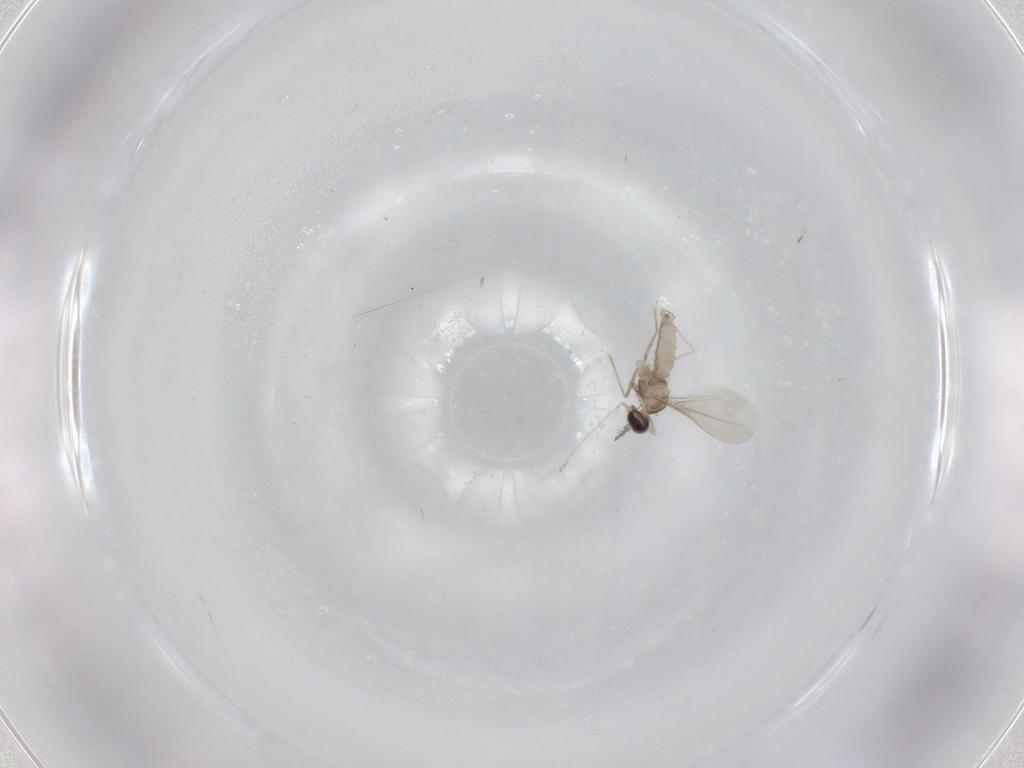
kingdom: Animalia
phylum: Arthropoda
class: Insecta
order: Diptera
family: Cecidomyiidae
